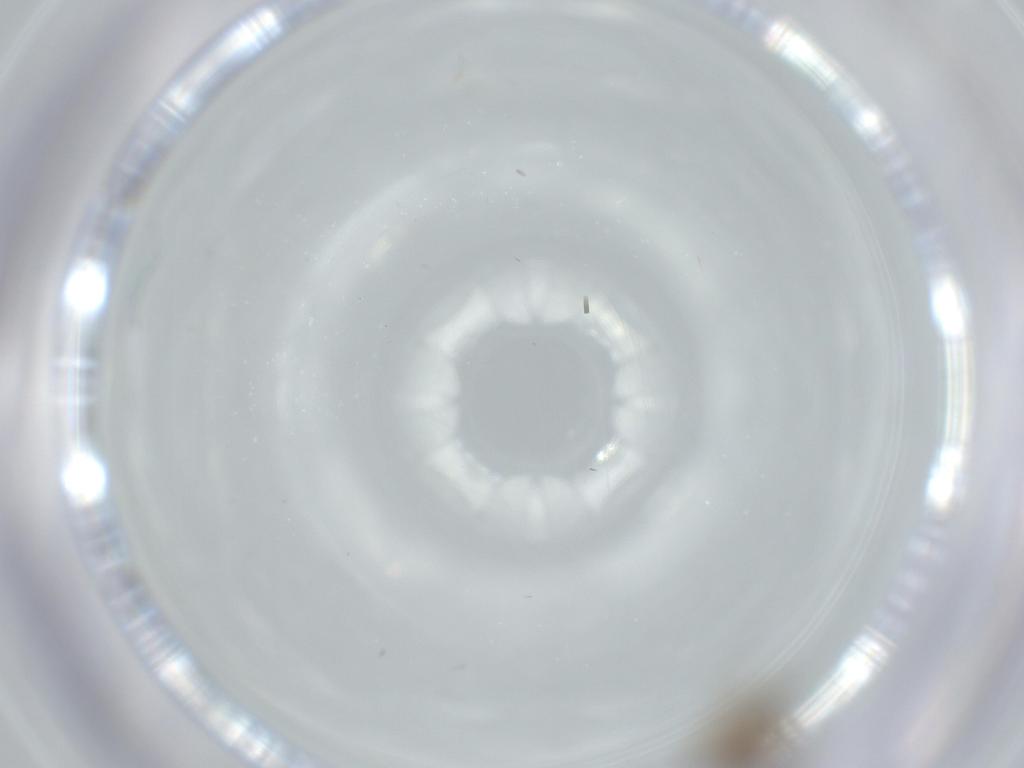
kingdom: Animalia
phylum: Arthropoda
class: Insecta
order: Diptera
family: Phoridae
